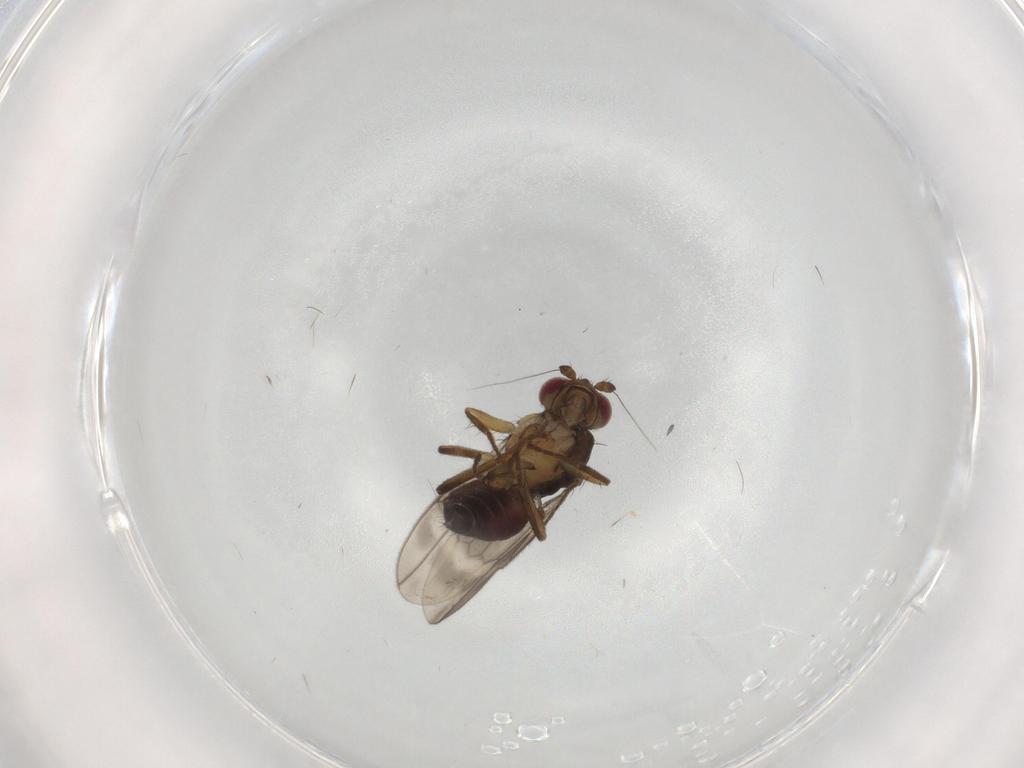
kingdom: Animalia
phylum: Arthropoda
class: Insecta
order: Diptera
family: Sphaeroceridae
